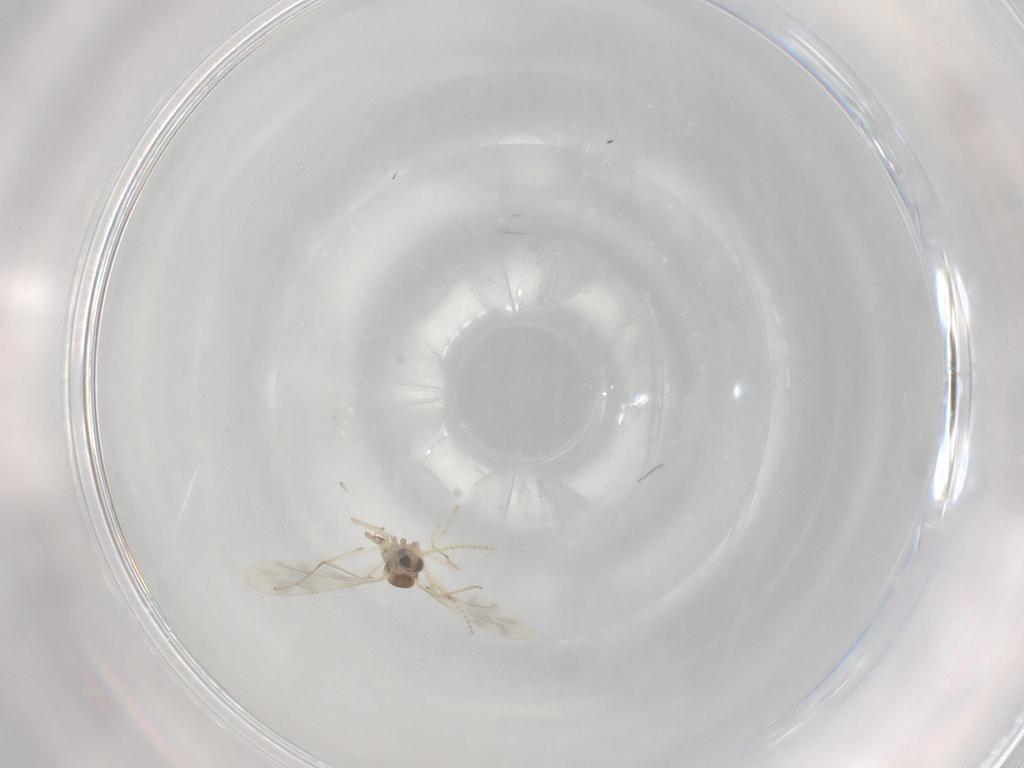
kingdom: Animalia
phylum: Arthropoda
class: Insecta
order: Diptera
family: Cecidomyiidae
